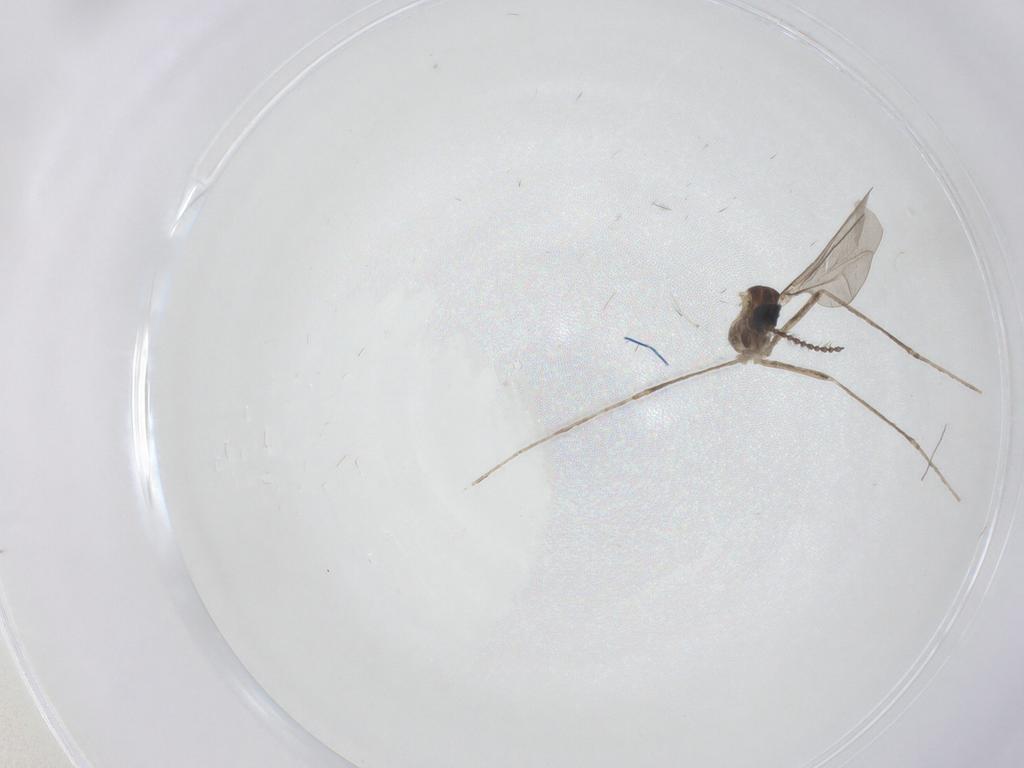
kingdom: Animalia
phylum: Arthropoda
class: Insecta
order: Diptera
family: Cecidomyiidae
